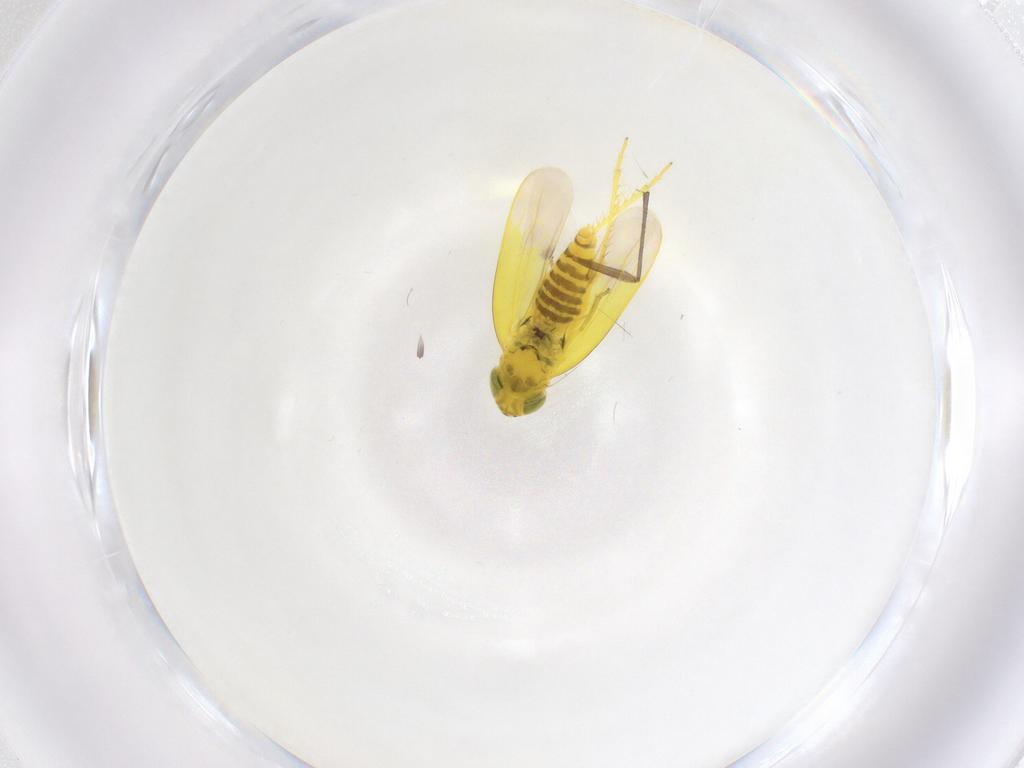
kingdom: Animalia
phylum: Arthropoda
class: Insecta
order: Hemiptera
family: Cicadellidae
